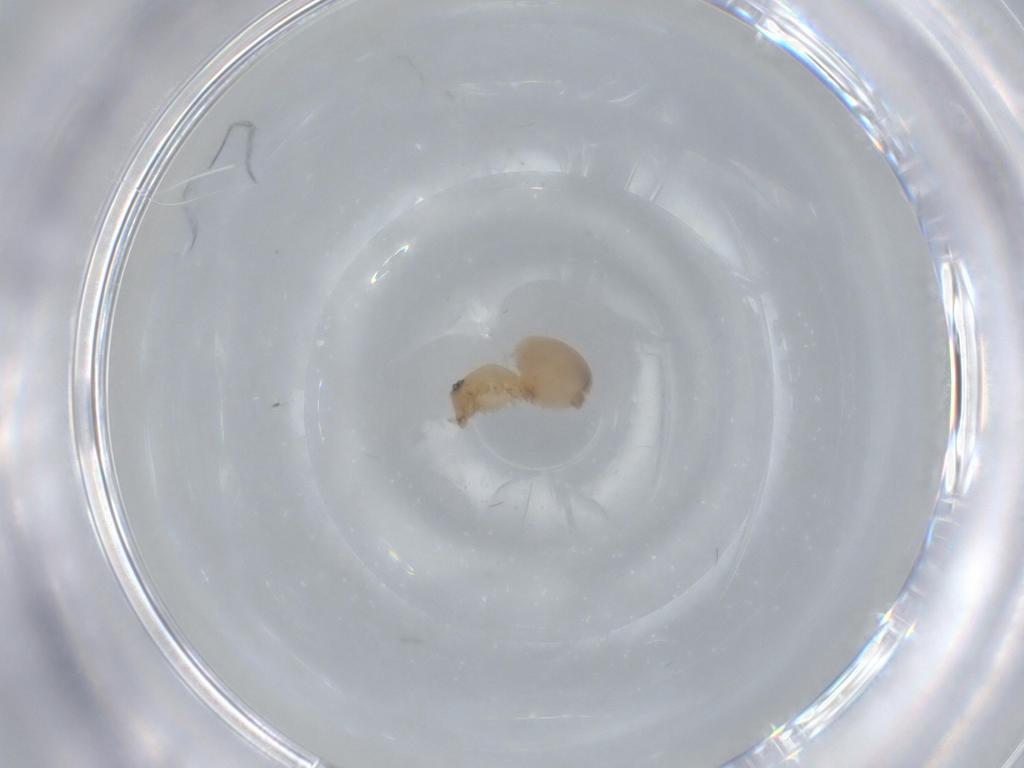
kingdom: Animalia
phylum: Arthropoda
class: Arachnida
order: Araneae
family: Oonopidae
